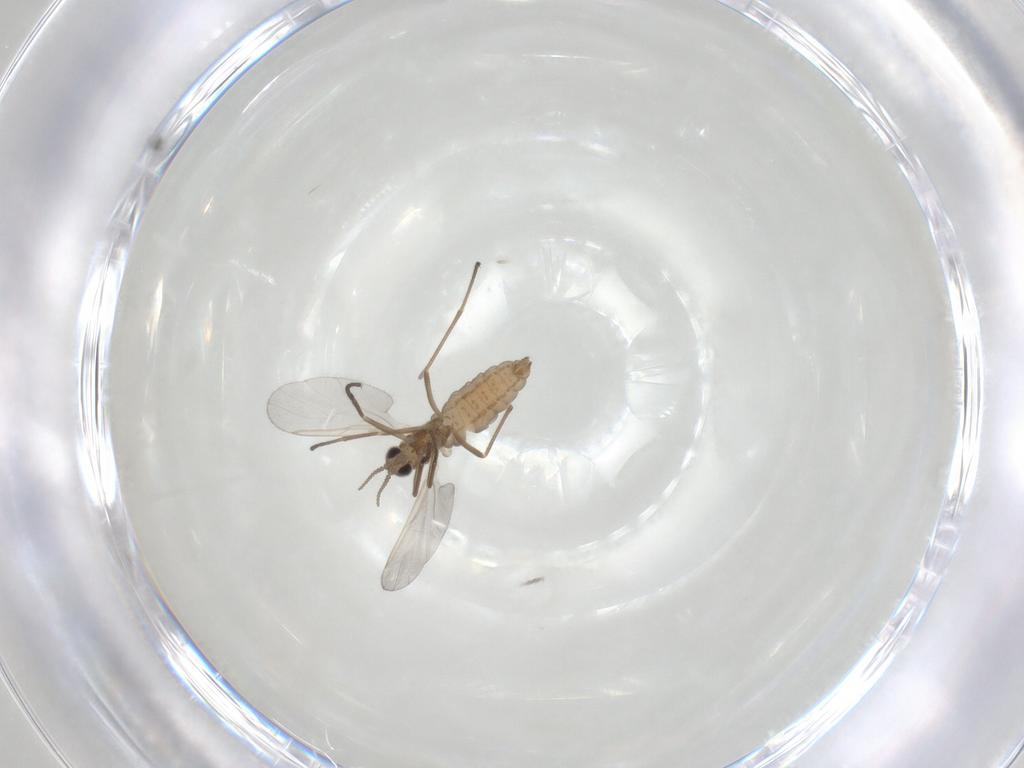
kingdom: Animalia
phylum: Arthropoda
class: Insecta
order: Diptera
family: Cecidomyiidae
